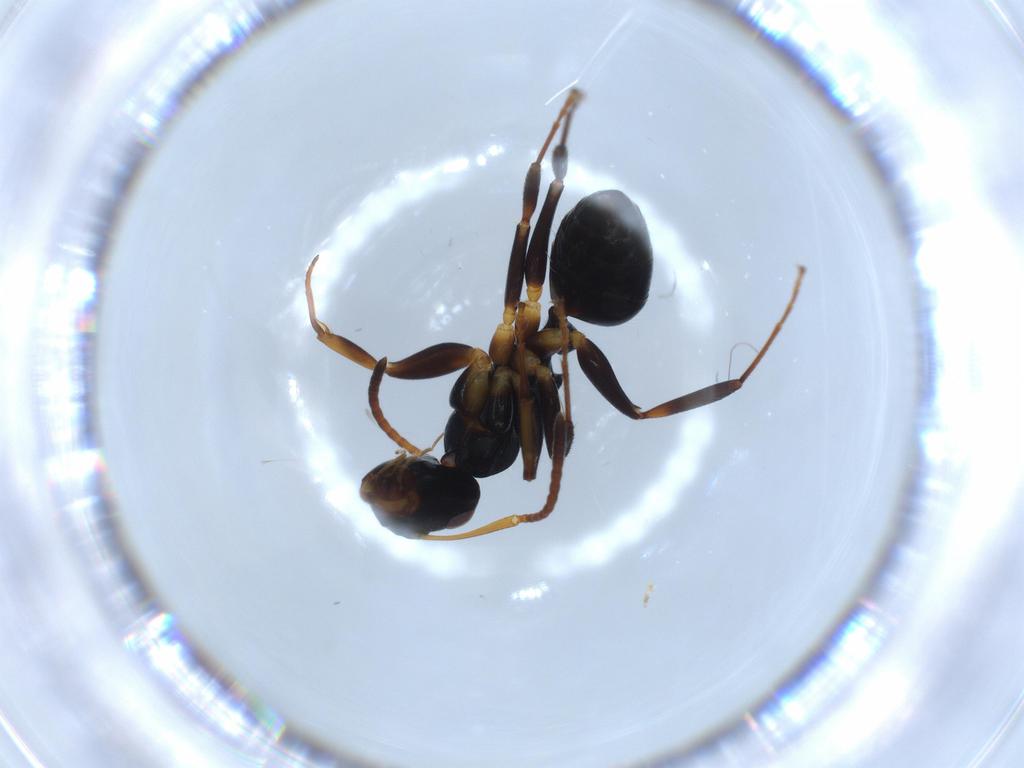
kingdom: Animalia
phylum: Arthropoda
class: Insecta
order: Hymenoptera
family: Formicidae
